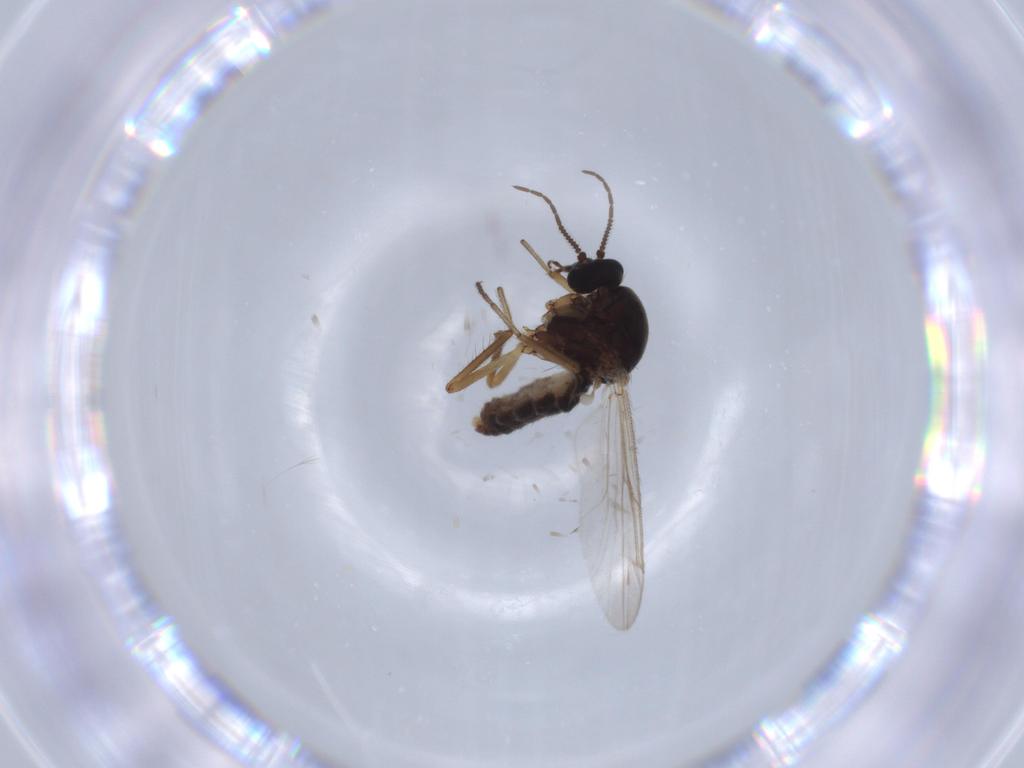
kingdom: Animalia
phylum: Arthropoda
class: Insecta
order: Diptera
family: Ceratopogonidae
